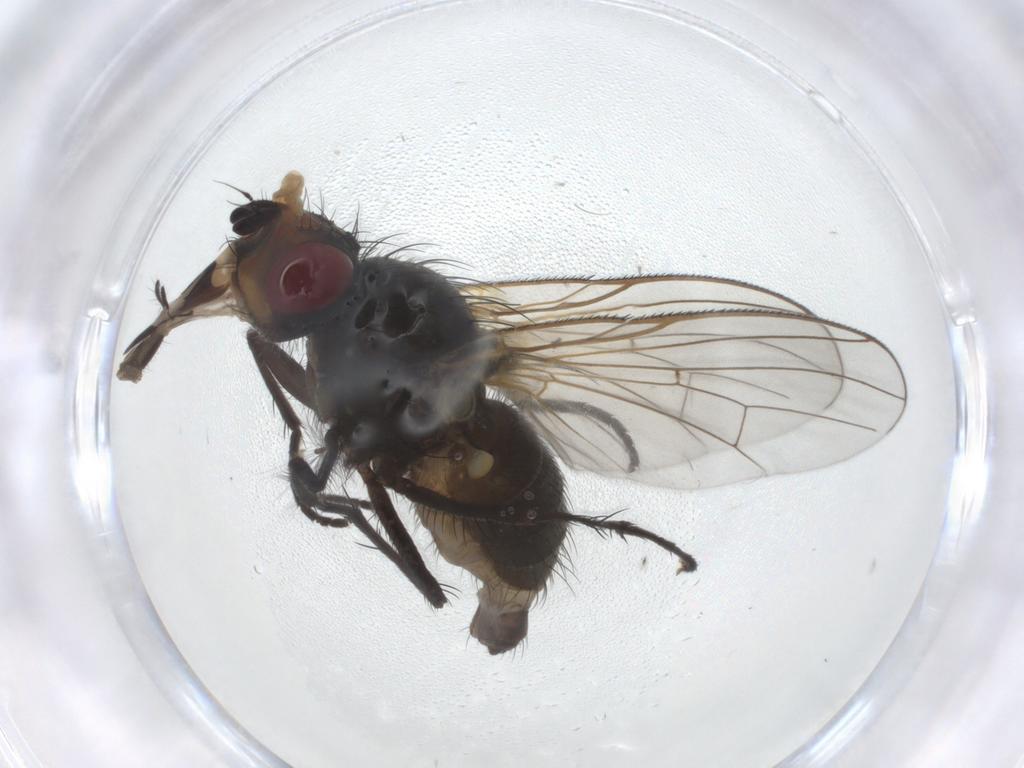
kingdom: Animalia
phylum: Arthropoda
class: Insecta
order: Diptera
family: Anthomyiidae
